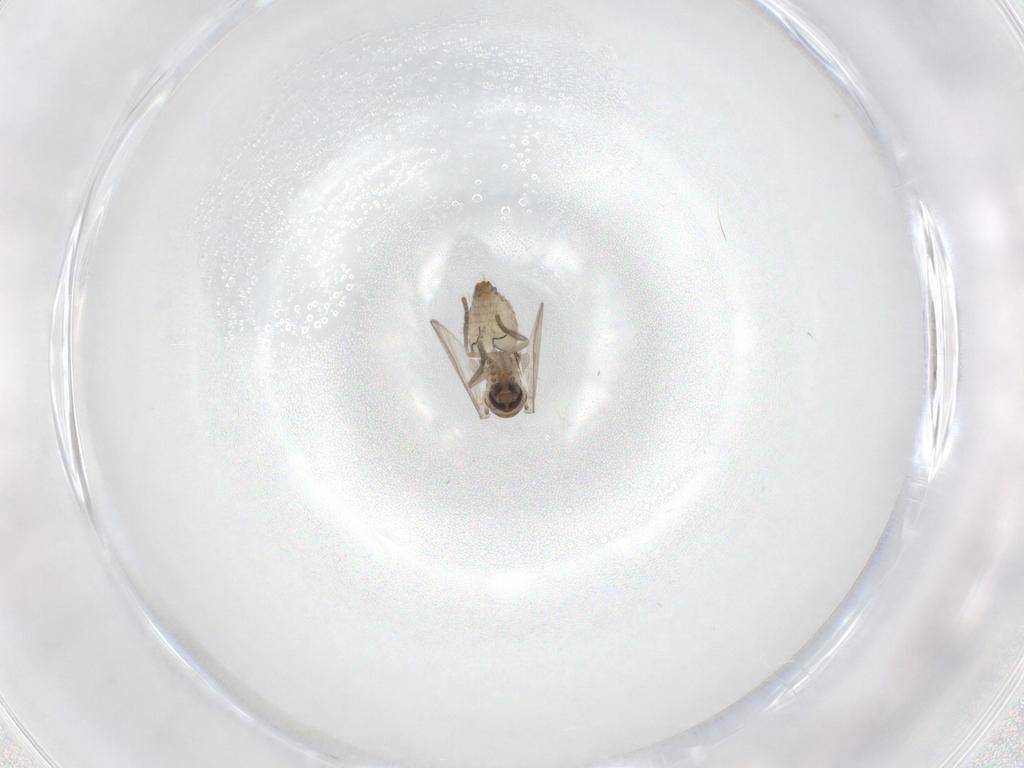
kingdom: Animalia
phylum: Arthropoda
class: Insecta
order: Diptera
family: Psychodidae
